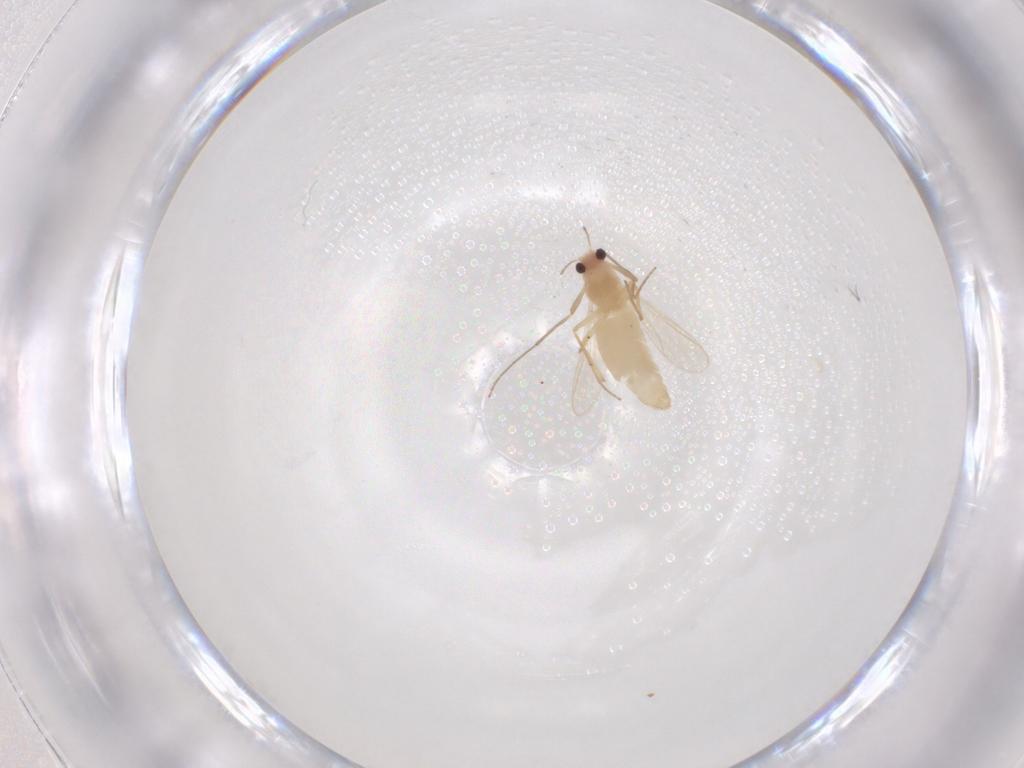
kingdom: Animalia
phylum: Arthropoda
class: Insecta
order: Diptera
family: Chironomidae
